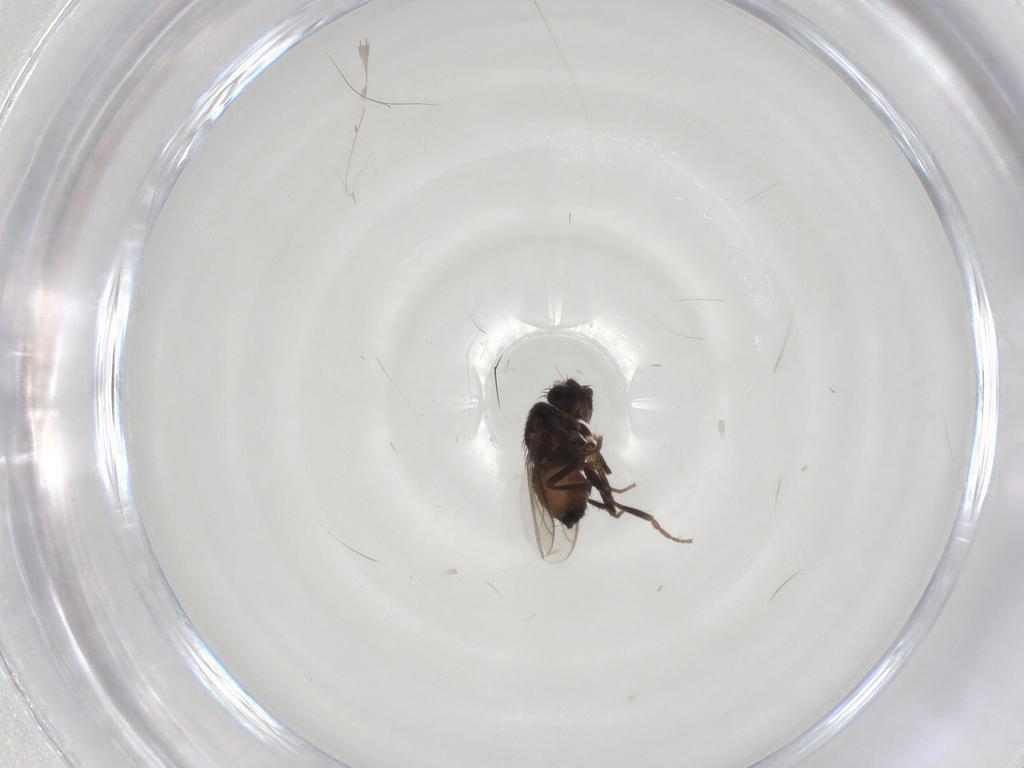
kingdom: Animalia
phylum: Arthropoda
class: Insecta
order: Diptera
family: Sphaeroceridae
